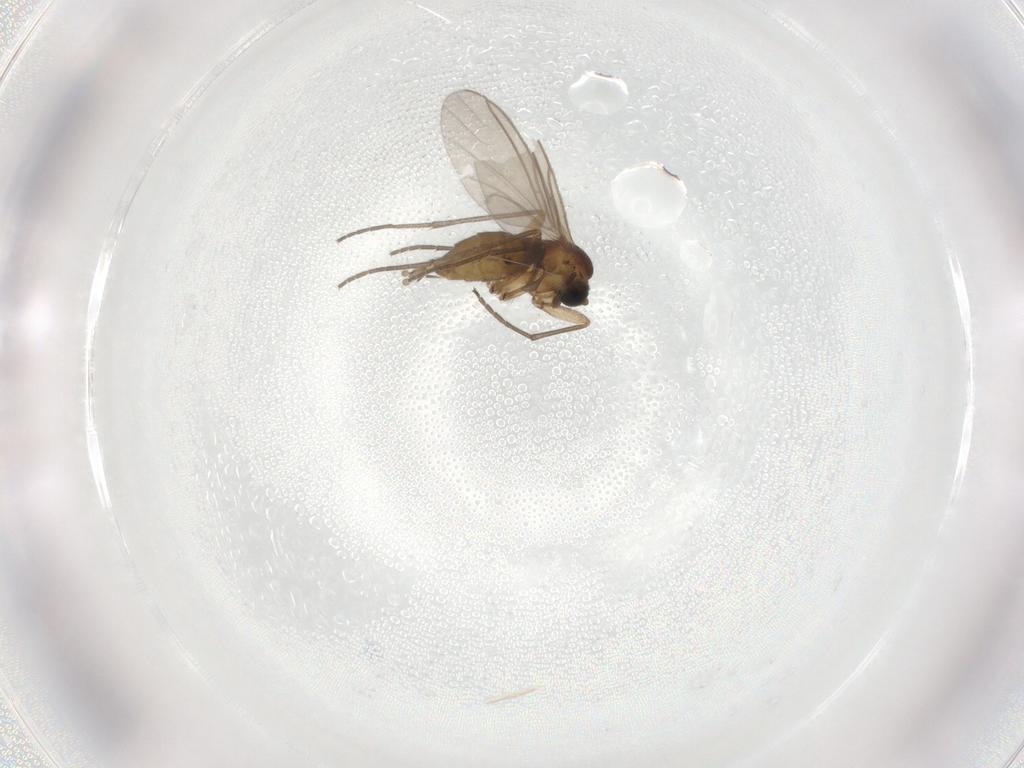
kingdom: Animalia
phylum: Arthropoda
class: Insecta
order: Diptera
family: Sciaridae
